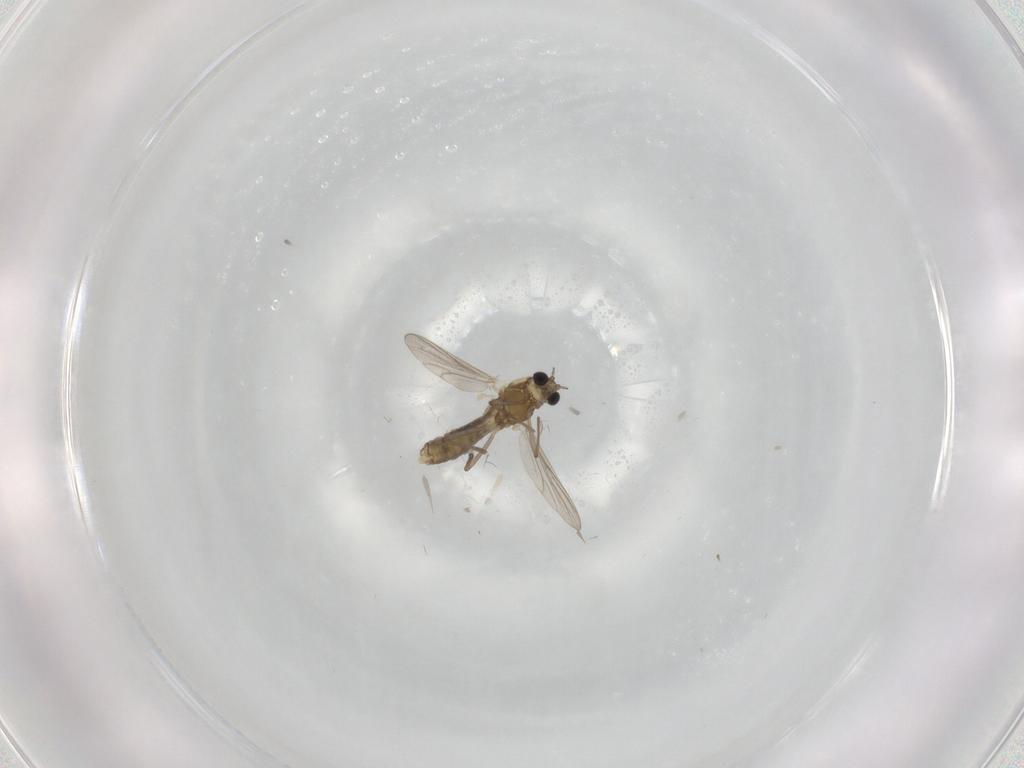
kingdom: Animalia
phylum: Arthropoda
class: Insecta
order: Diptera
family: Chironomidae
